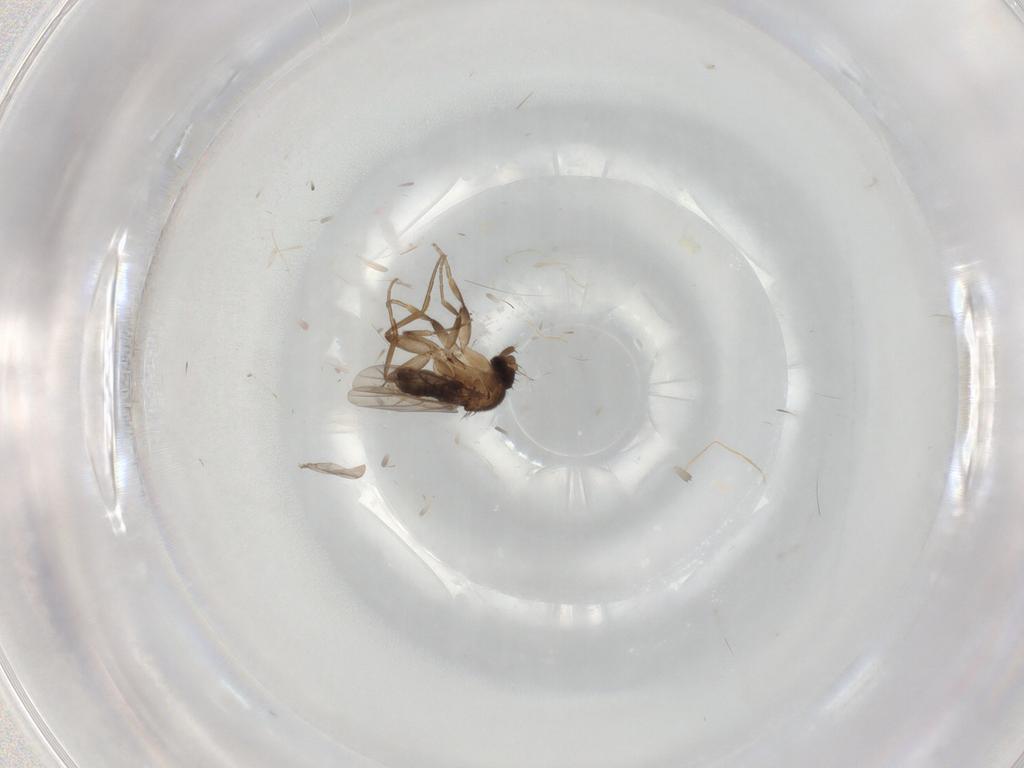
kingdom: Animalia
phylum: Arthropoda
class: Insecta
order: Diptera
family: Phoridae
